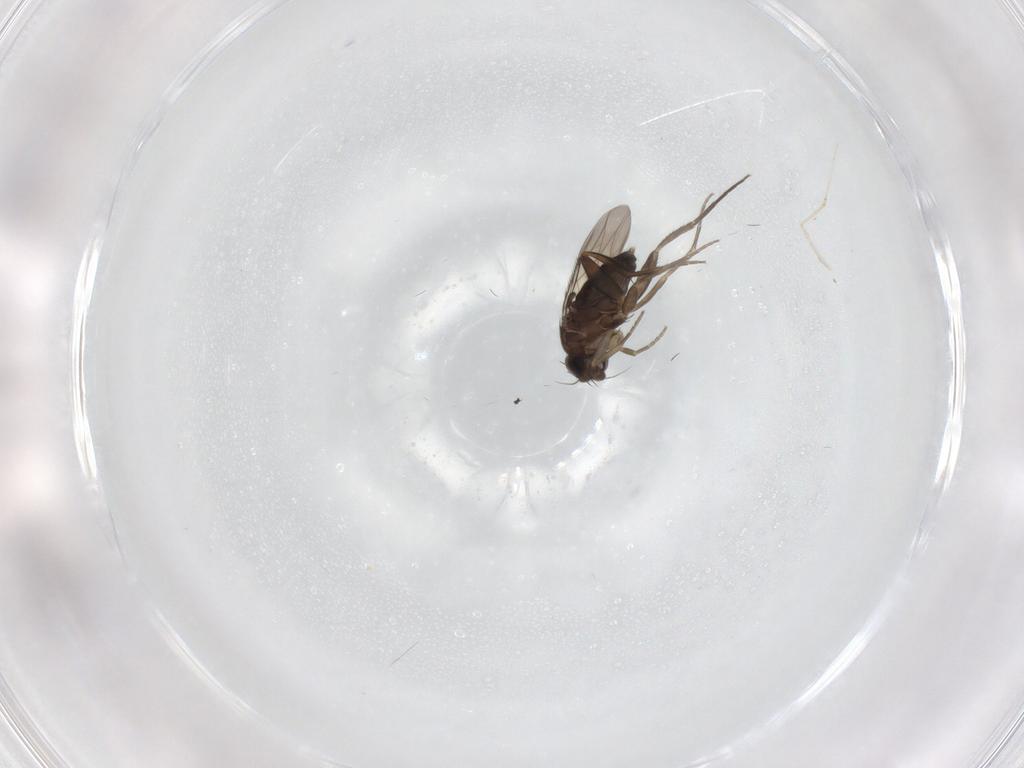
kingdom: Animalia
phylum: Arthropoda
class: Insecta
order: Diptera
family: Phoridae
